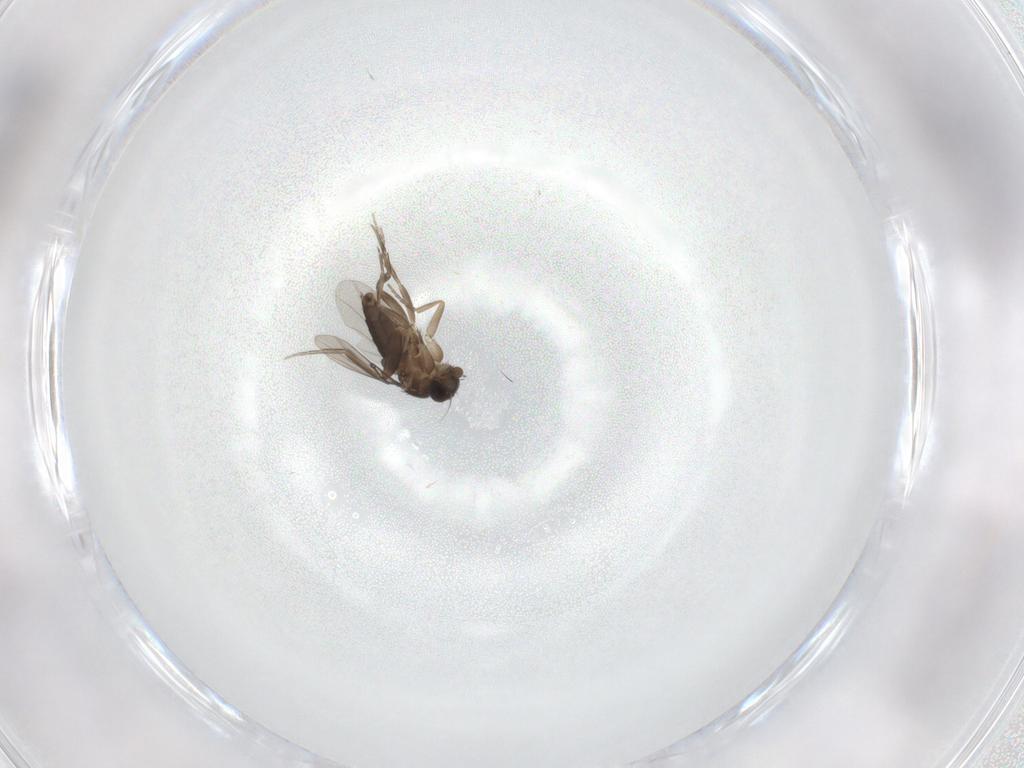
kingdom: Animalia
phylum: Arthropoda
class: Insecta
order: Diptera
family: Phoridae
